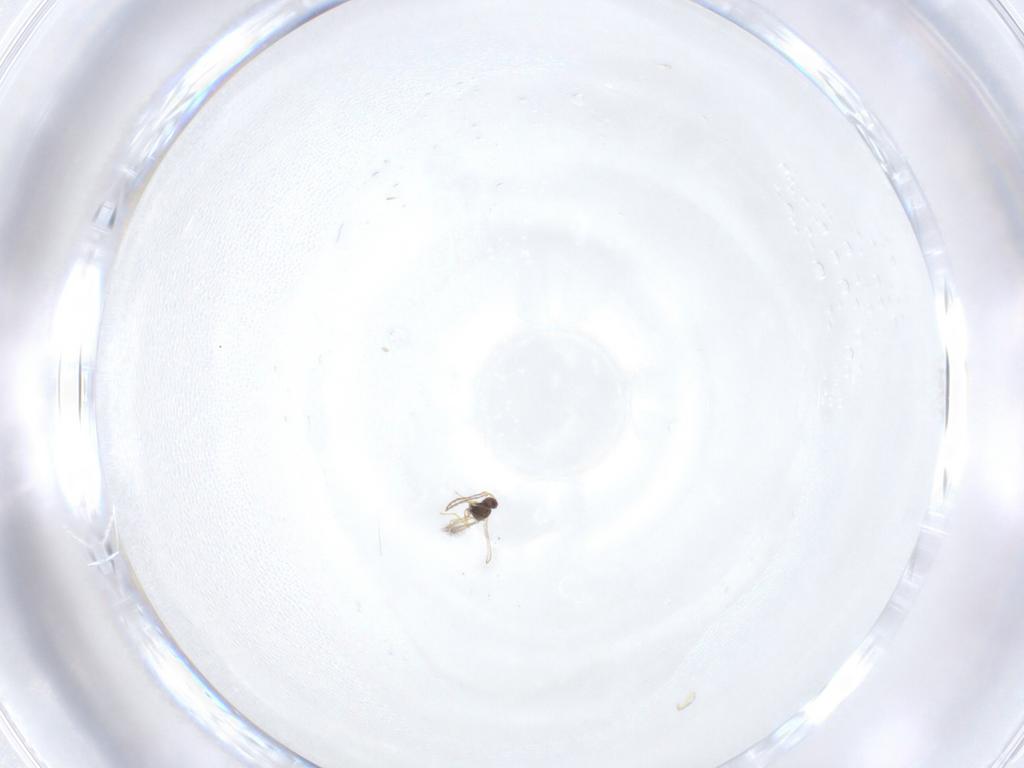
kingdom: Animalia
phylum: Arthropoda
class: Insecta
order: Hymenoptera
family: Mymaridae
